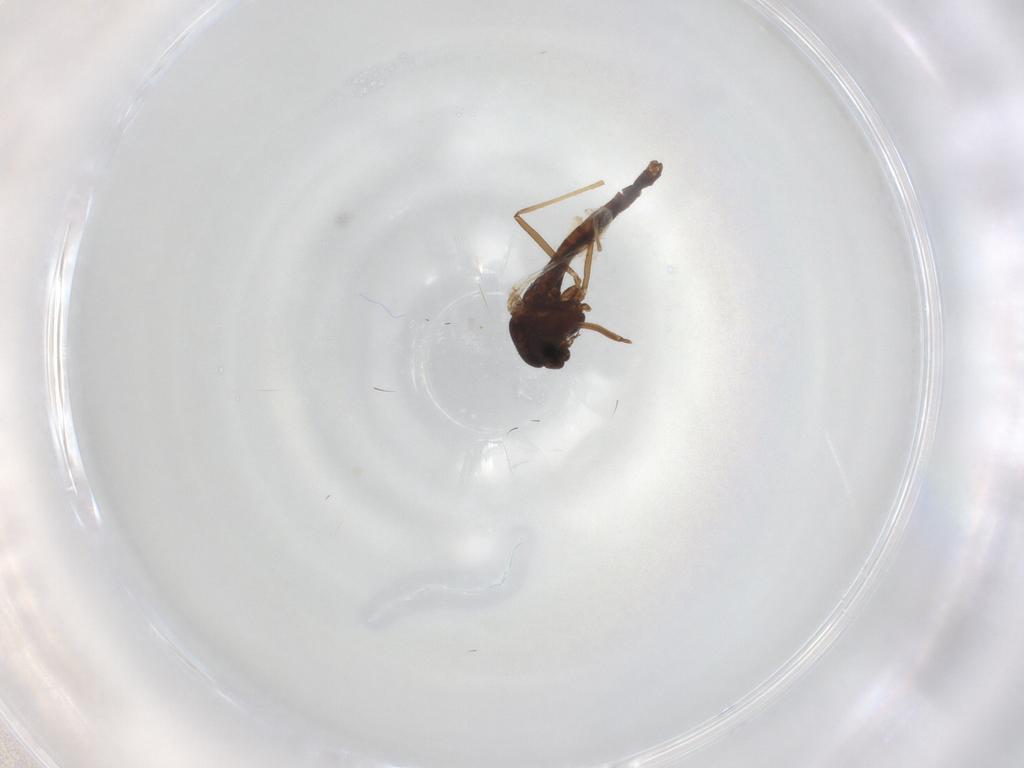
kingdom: Animalia
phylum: Arthropoda
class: Insecta
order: Diptera
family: Chironomidae
